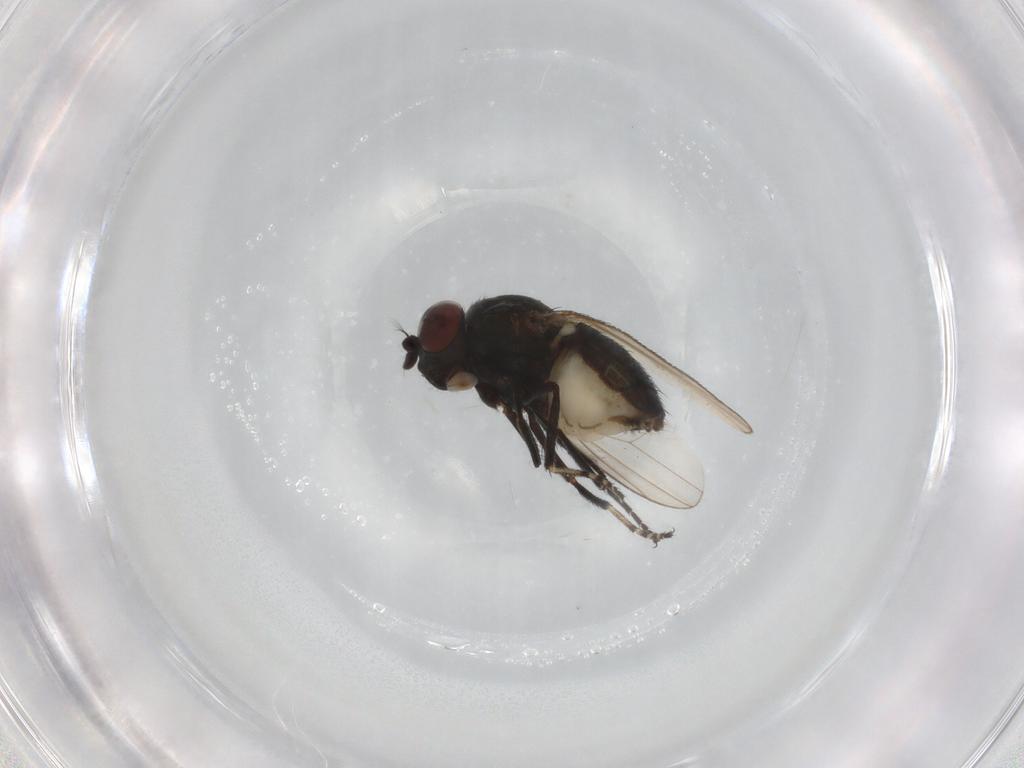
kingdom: Animalia
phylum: Arthropoda
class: Insecta
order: Diptera
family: Ephydridae
